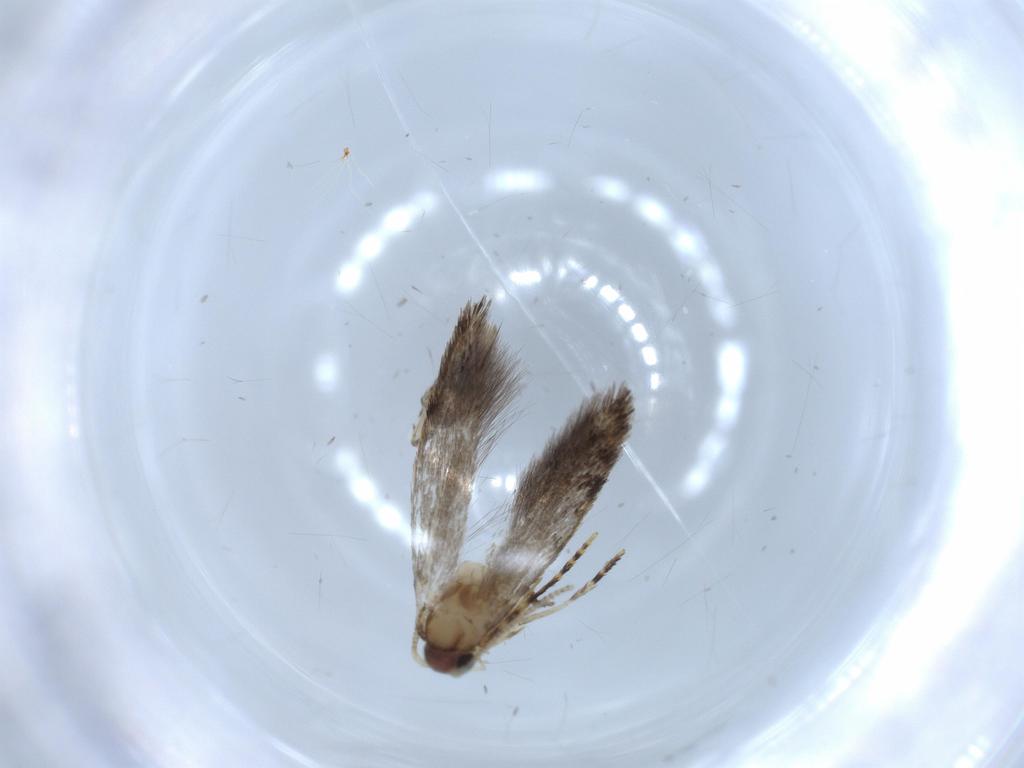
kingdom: Animalia
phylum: Arthropoda
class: Insecta
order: Lepidoptera
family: Tineidae
